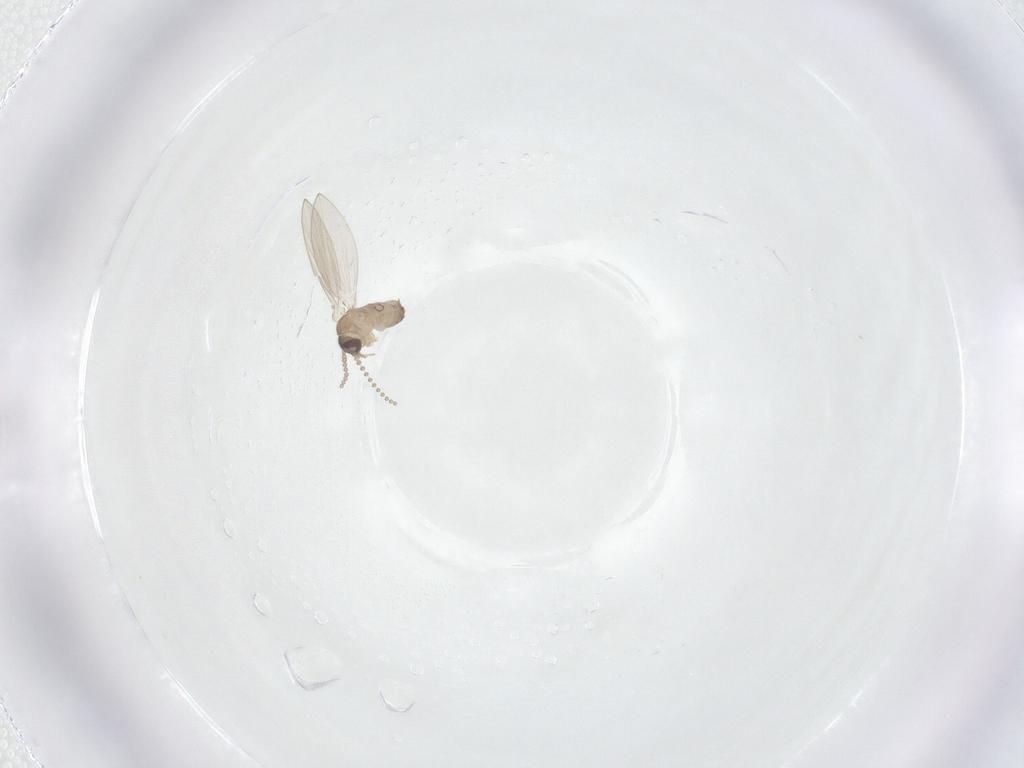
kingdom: Animalia
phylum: Arthropoda
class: Insecta
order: Diptera
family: Psychodidae
